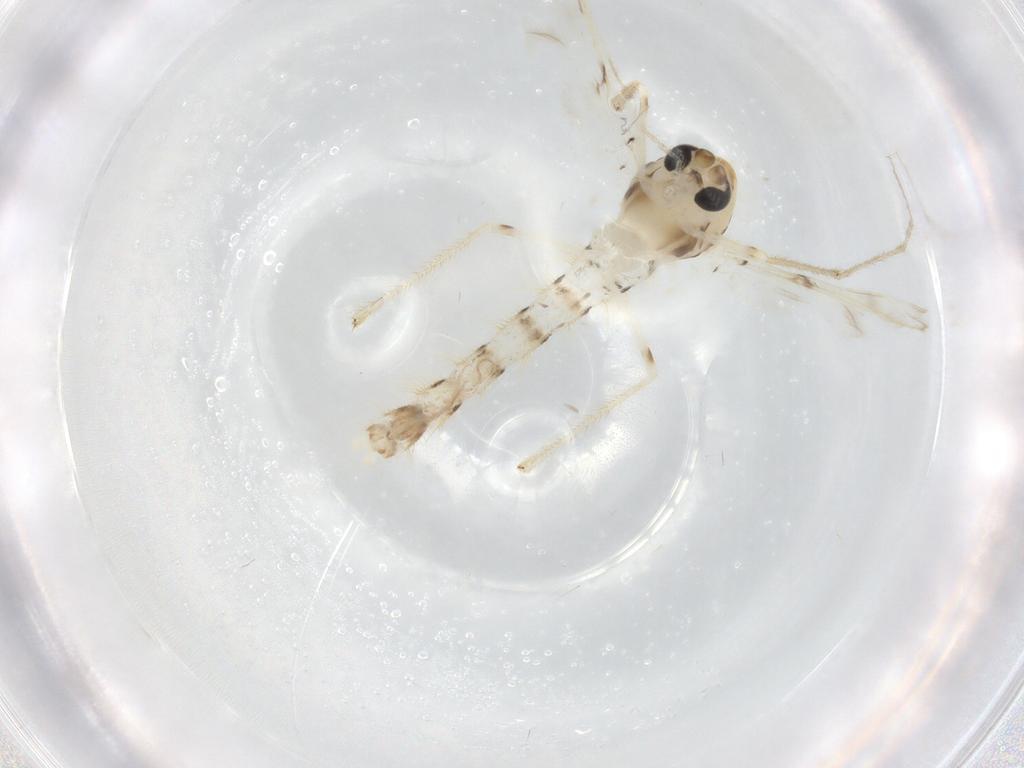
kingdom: Animalia
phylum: Arthropoda
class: Insecta
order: Diptera
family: Chironomidae
